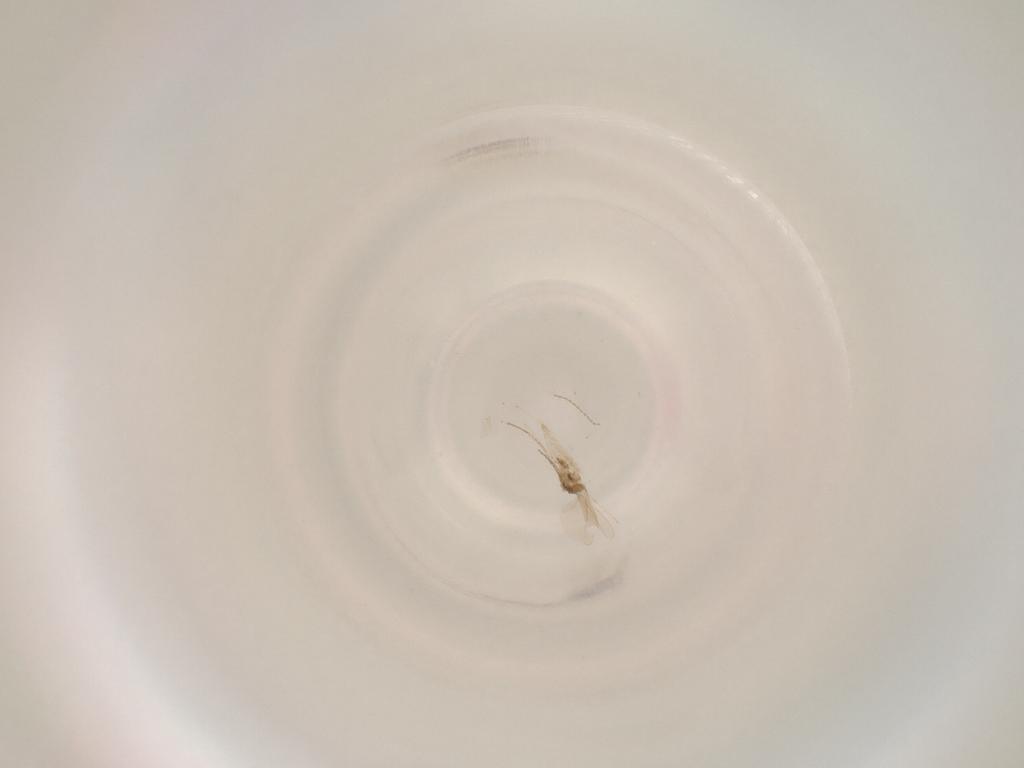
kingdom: Animalia
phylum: Arthropoda
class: Insecta
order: Diptera
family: Cecidomyiidae
